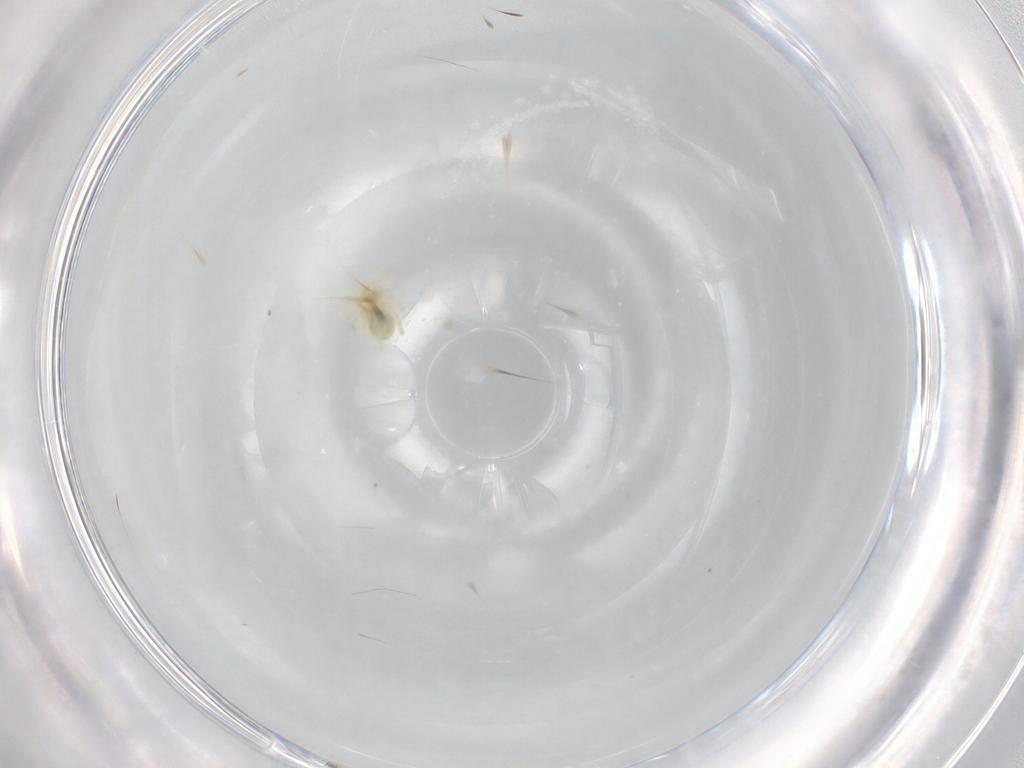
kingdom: Animalia
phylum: Arthropoda
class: Arachnida
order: Trombidiformes
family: Anystidae
